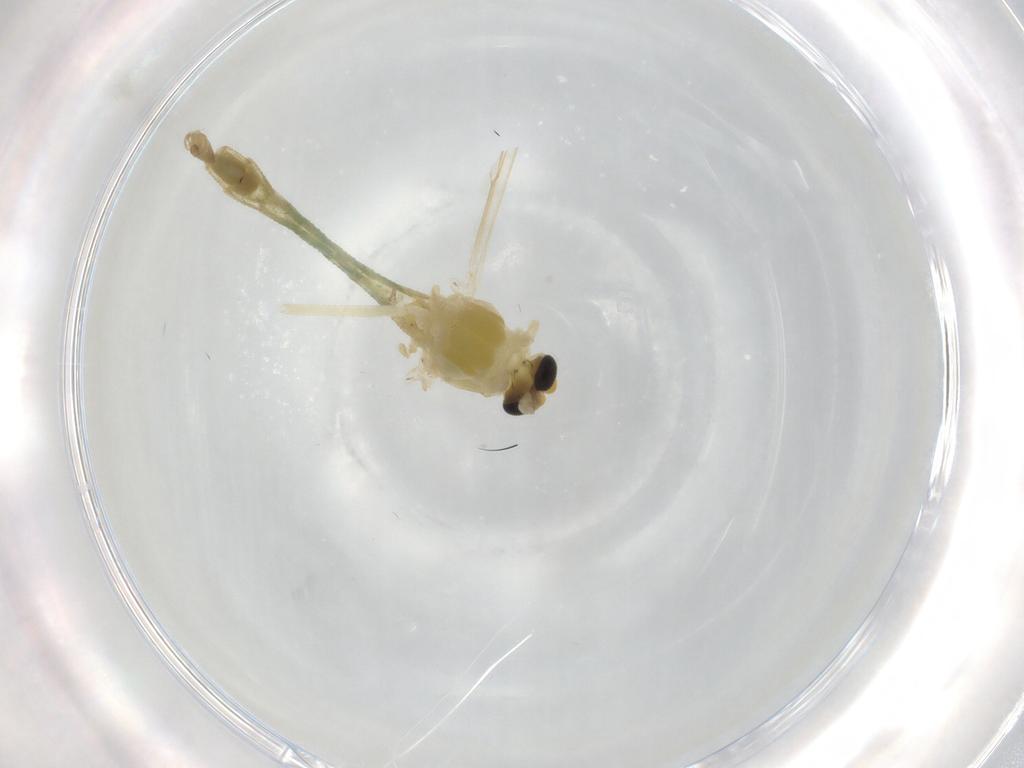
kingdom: Animalia
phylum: Arthropoda
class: Insecta
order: Diptera
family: Chironomidae
